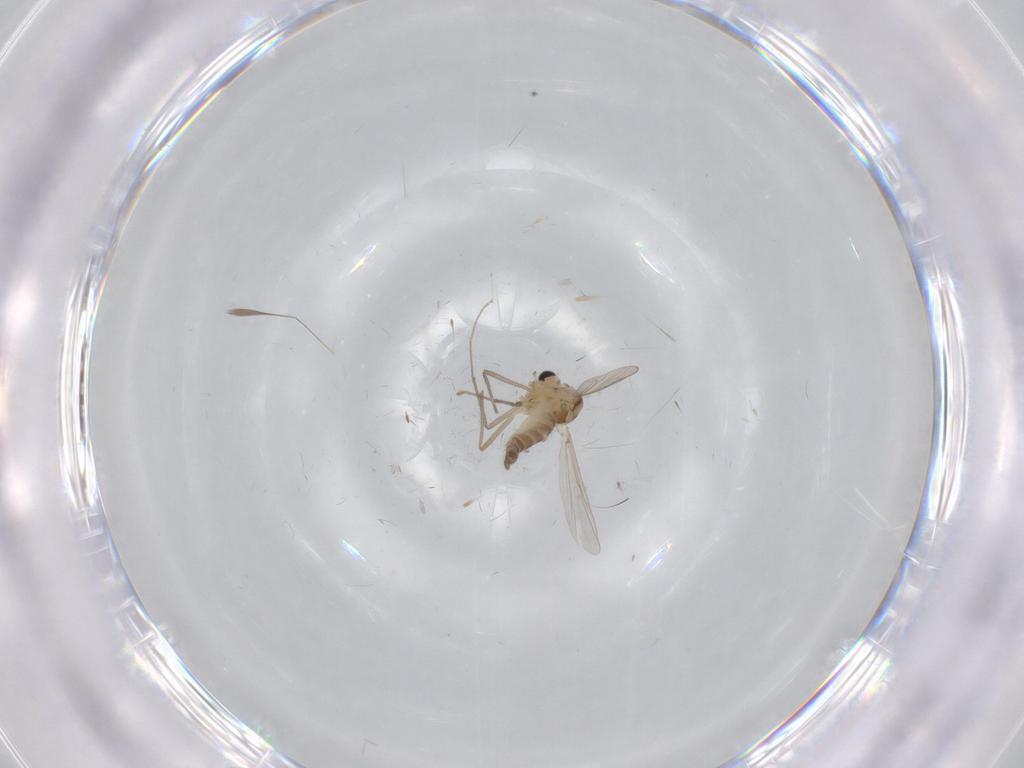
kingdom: Animalia
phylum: Arthropoda
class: Insecta
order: Diptera
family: Chironomidae
